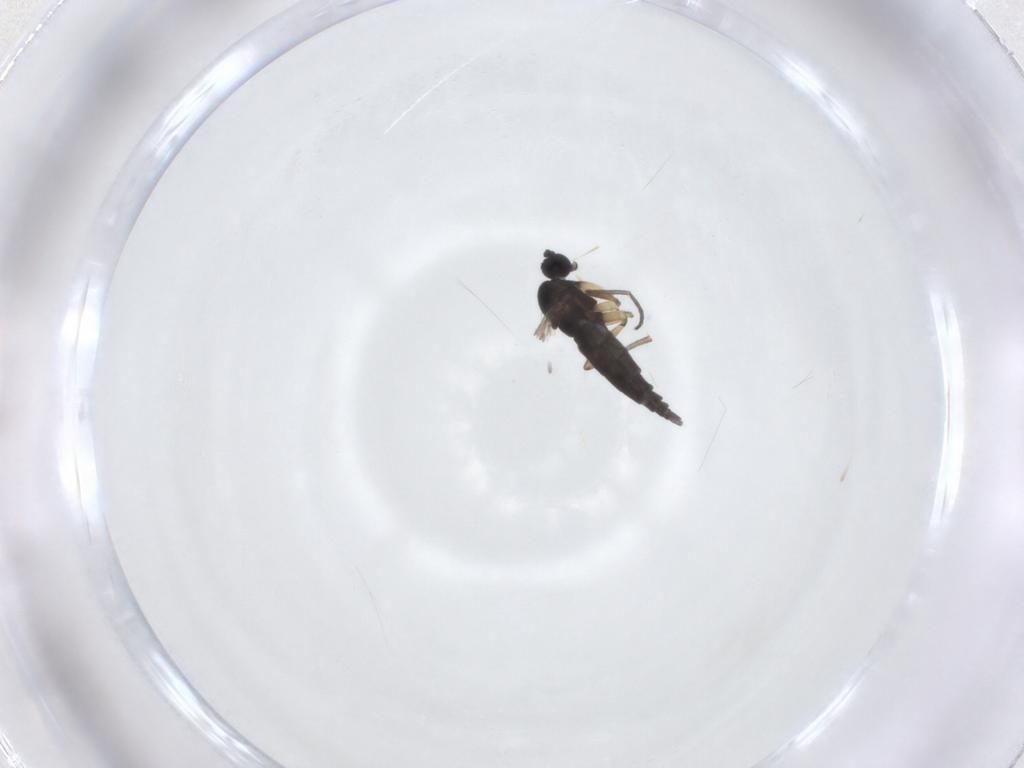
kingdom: Animalia
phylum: Arthropoda
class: Insecta
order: Diptera
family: Sciaridae
